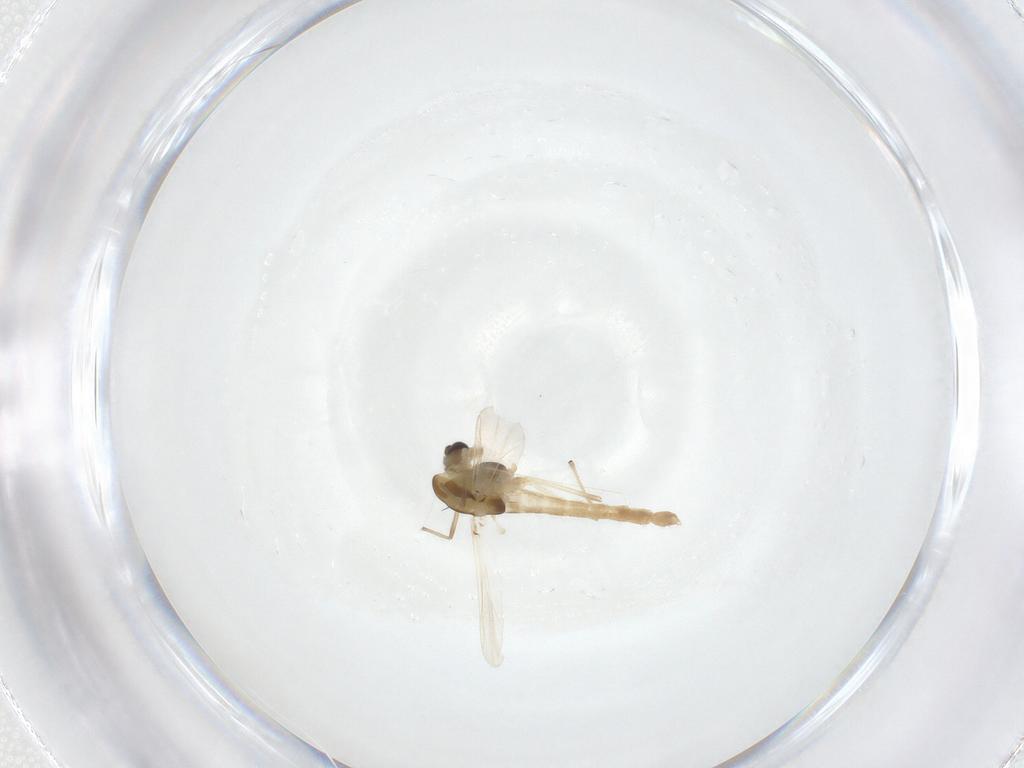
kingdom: Animalia
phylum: Arthropoda
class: Insecta
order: Diptera
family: Chironomidae
